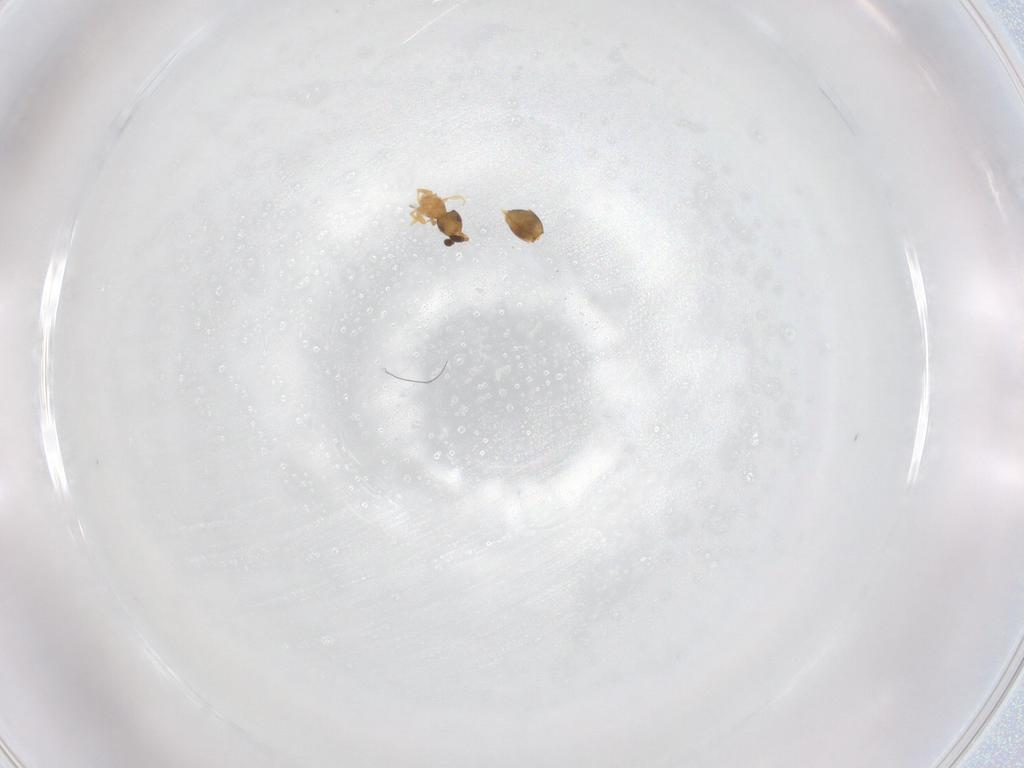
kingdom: Animalia
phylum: Arthropoda
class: Insecta
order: Hymenoptera
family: Ceraphronidae
